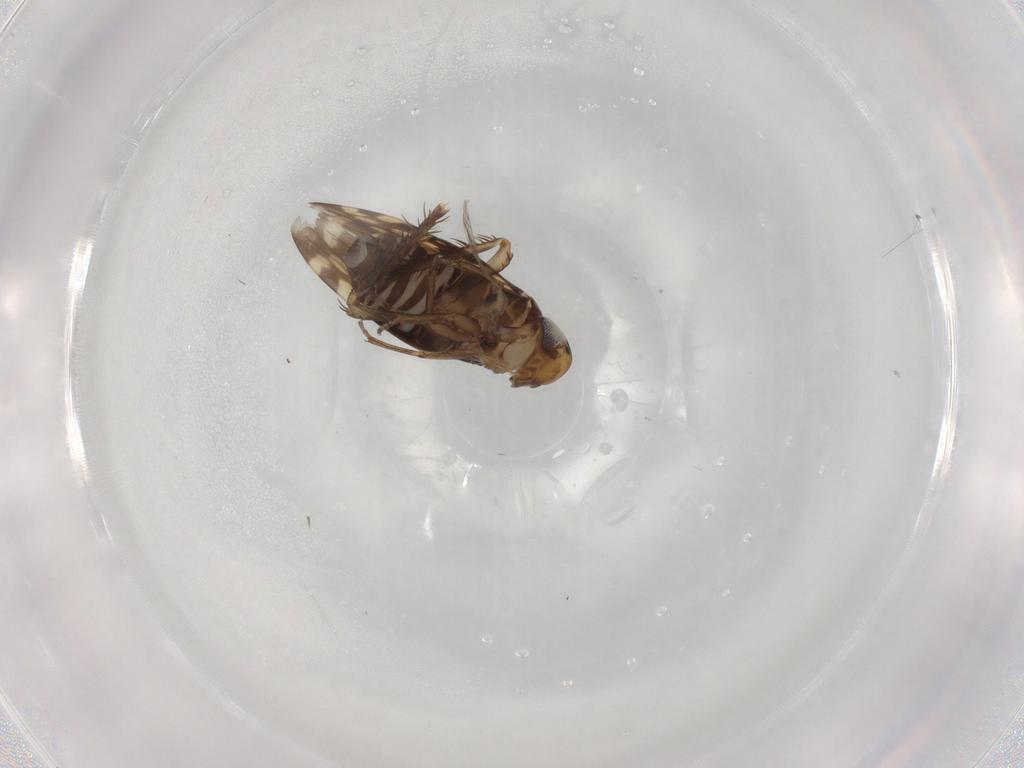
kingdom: Animalia
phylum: Arthropoda
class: Insecta
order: Hemiptera
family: Cicadellidae
